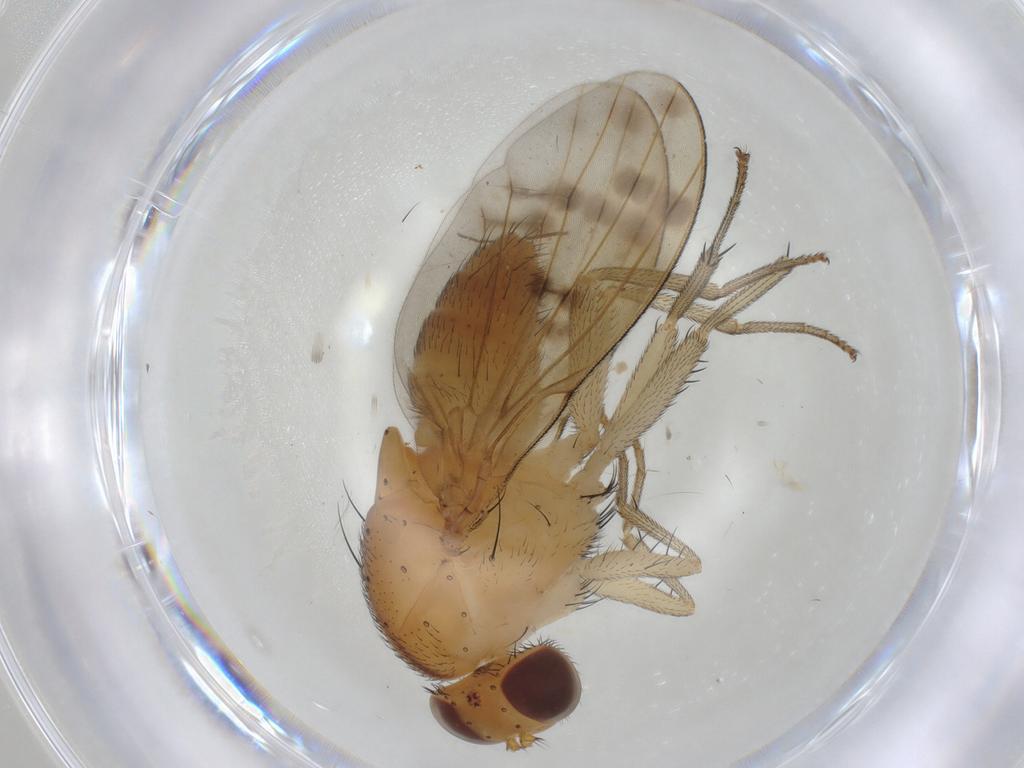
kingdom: Animalia
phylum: Arthropoda
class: Insecta
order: Diptera
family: Lauxaniidae
